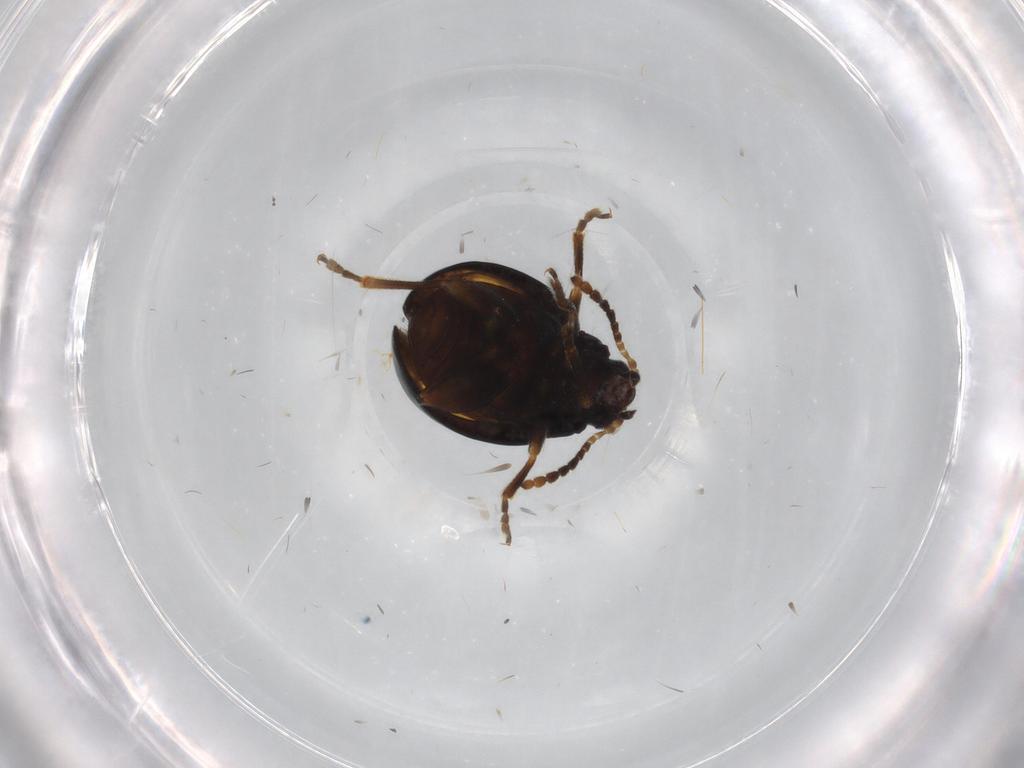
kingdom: Animalia
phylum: Arthropoda
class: Insecta
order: Coleoptera
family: Chrysomelidae
